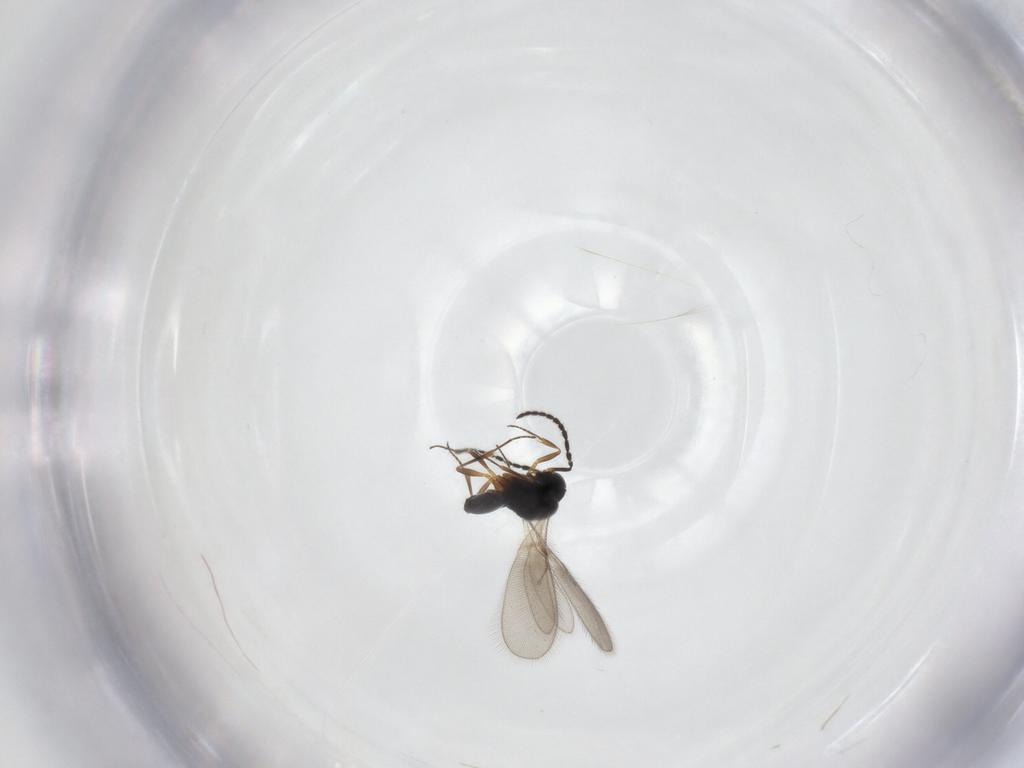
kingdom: Animalia
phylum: Arthropoda
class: Insecta
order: Hymenoptera
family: Scelionidae
